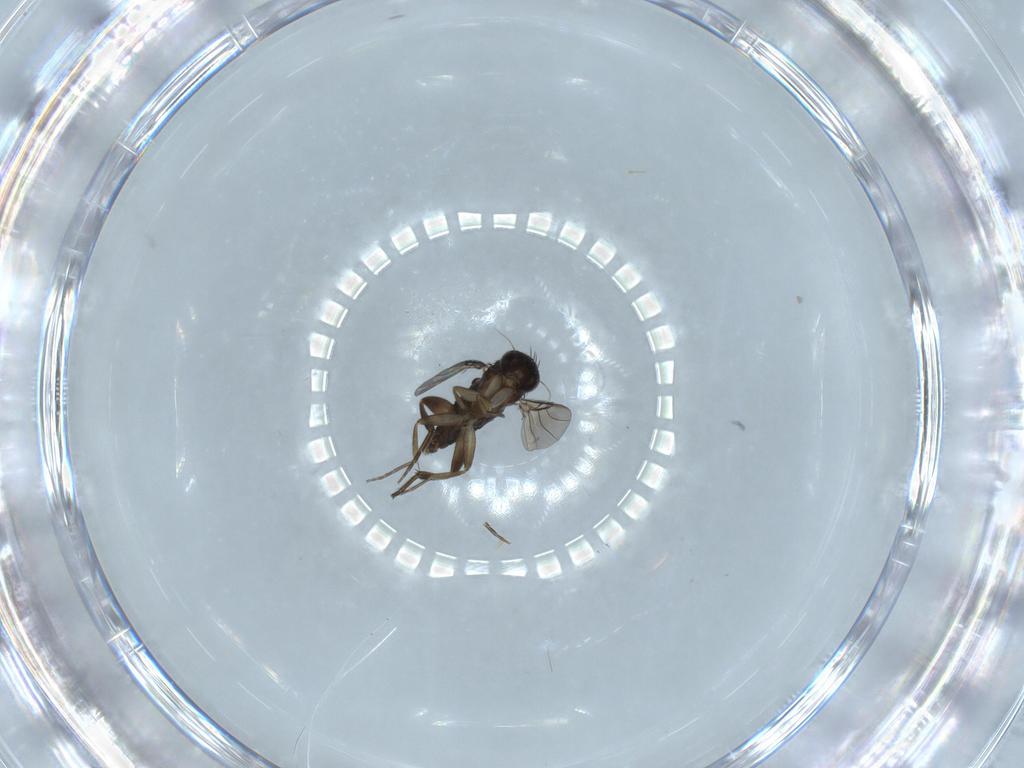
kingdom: Animalia
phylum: Arthropoda
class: Insecta
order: Diptera
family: Phoridae
